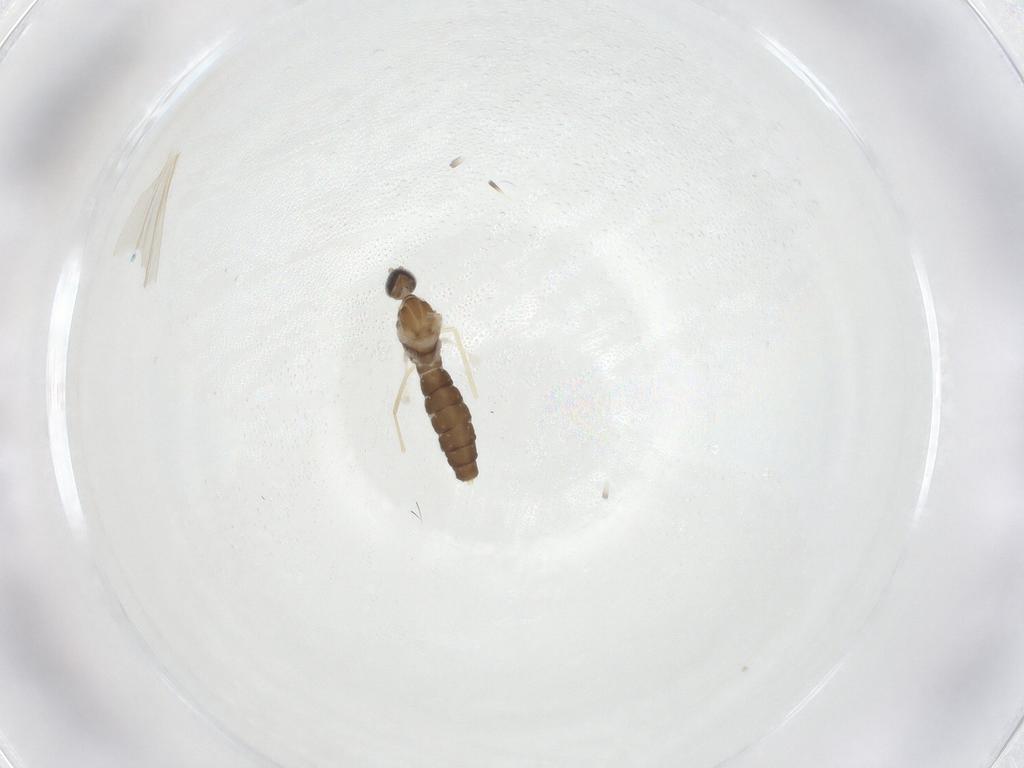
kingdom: Animalia
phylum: Arthropoda
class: Insecta
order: Diptera
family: Cecidomyiidae
